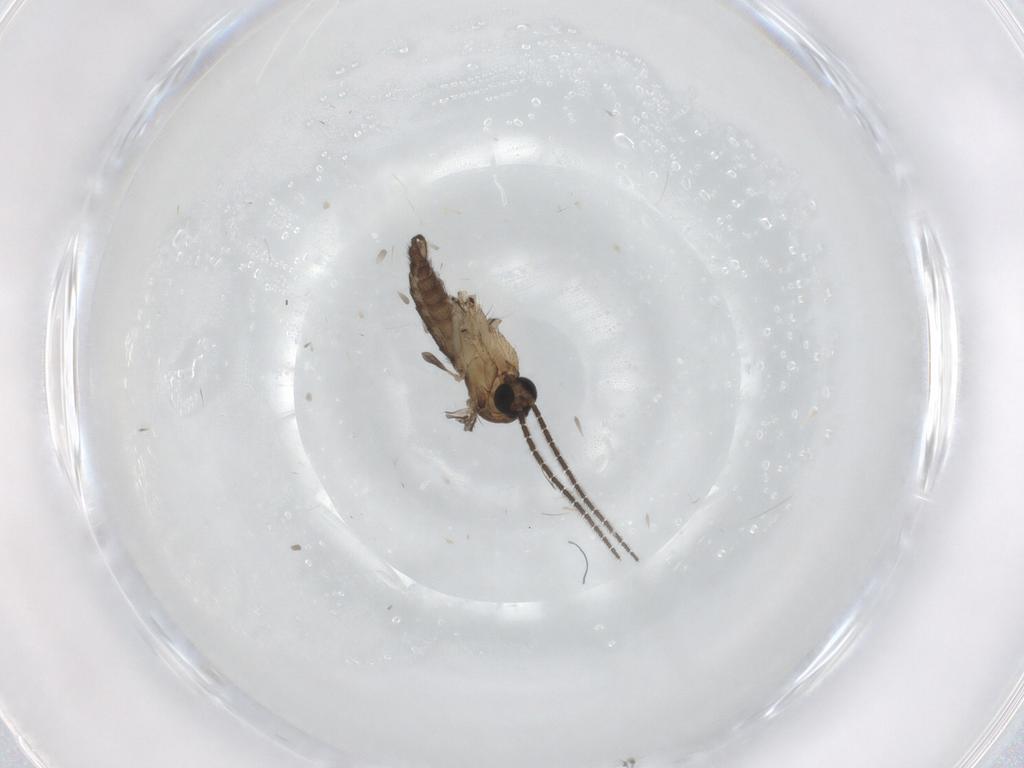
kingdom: Animalia
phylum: Arthropoda
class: Insecta
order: Diptera
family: Sciaridae
